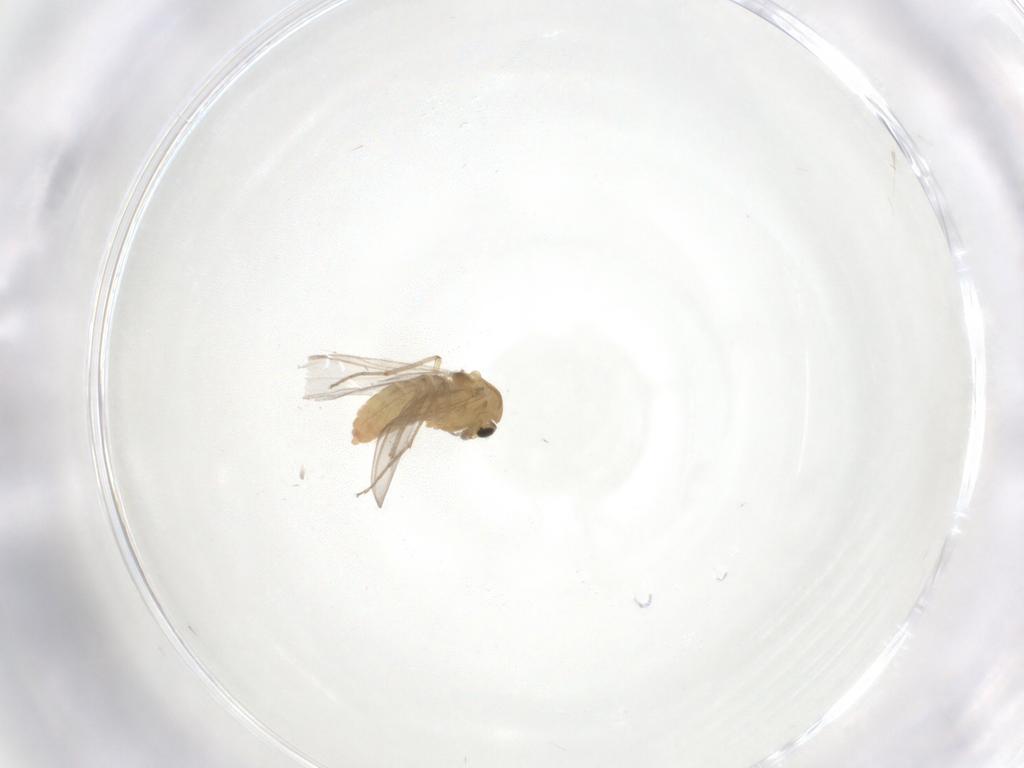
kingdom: Animalia
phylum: Arthropoda
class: Insecta
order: Diptera
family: Chironomidae
